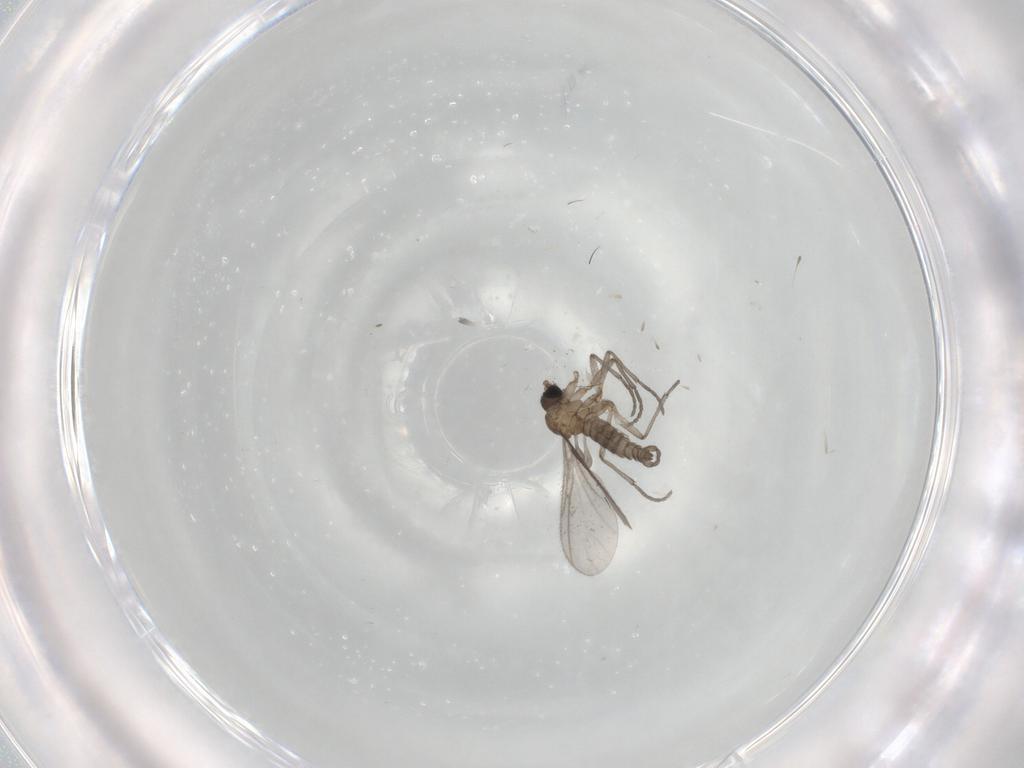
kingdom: Animalia
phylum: Arthropoda
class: Insecta
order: Diptera
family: Sciaridae
